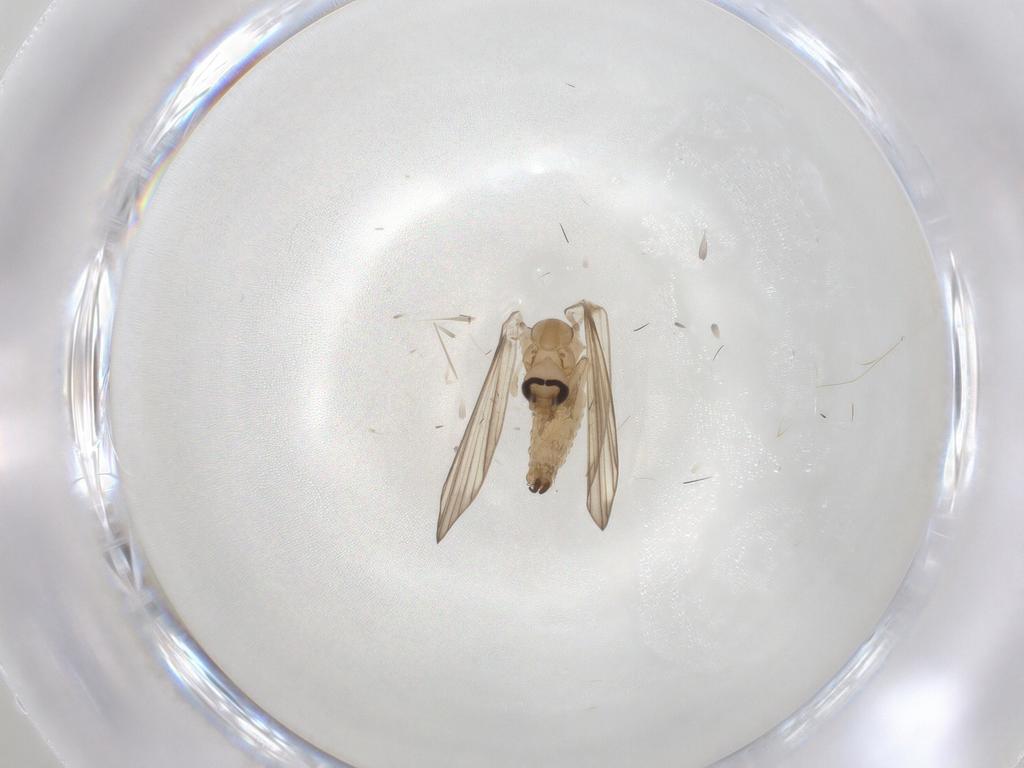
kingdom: Animalia
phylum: Arthropoda
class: Insecta
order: Diptera
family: Psychodidae
